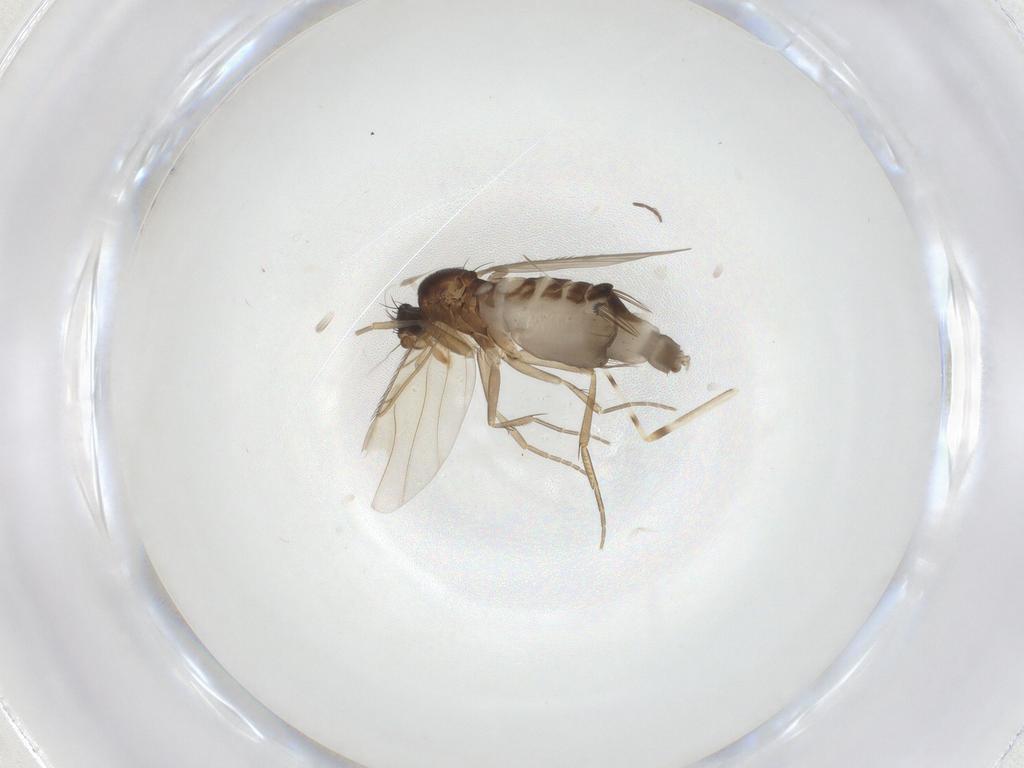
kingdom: Animalia
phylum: Arthropoda
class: Insecta
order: Diptera
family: Phoridae
